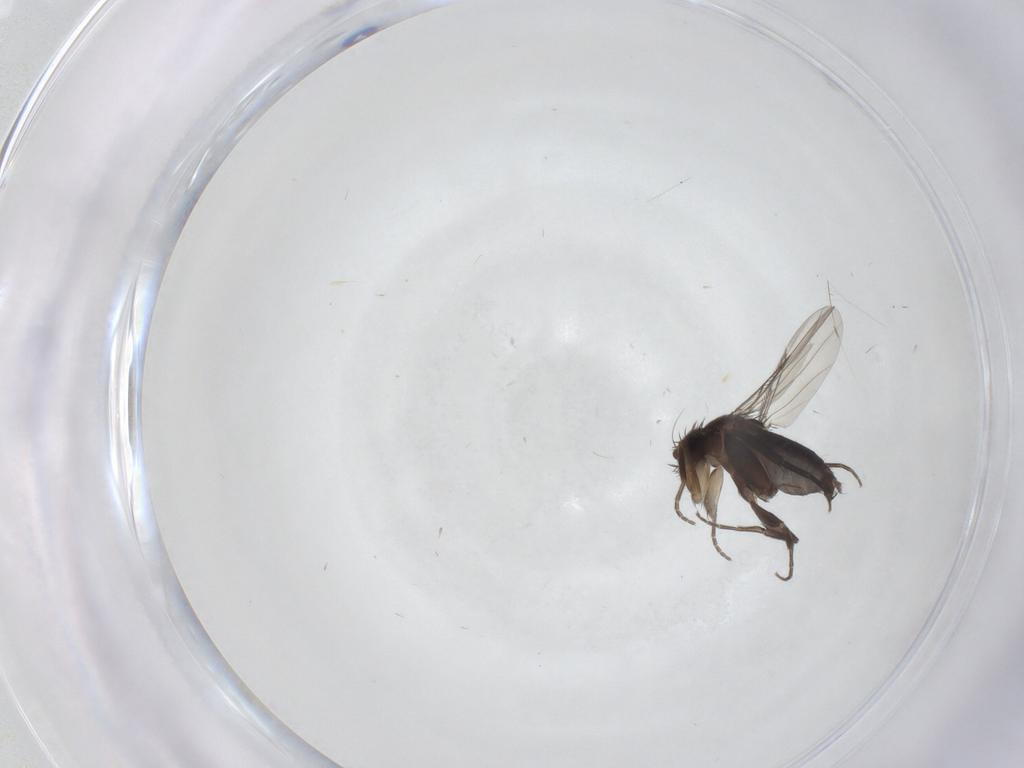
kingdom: Animalia
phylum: Arthropoda
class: Insecta
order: Diptera
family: Phoridae
